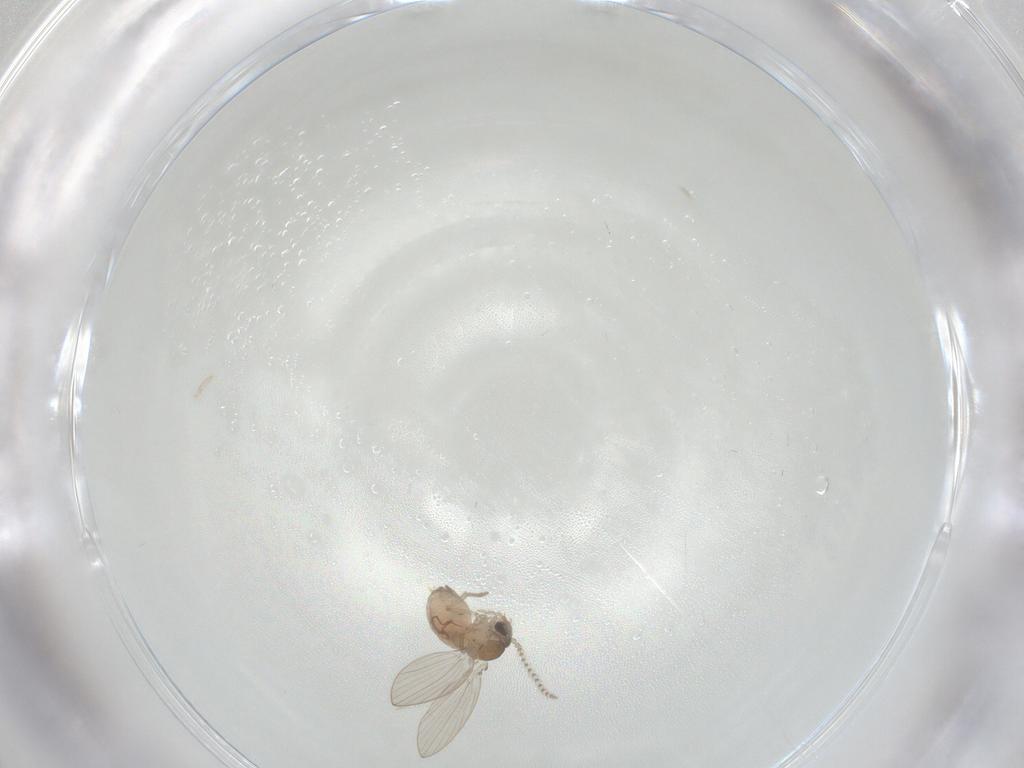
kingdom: Animalia
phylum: Arthropoda
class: Insecta
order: Diptera
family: Psychodidae
